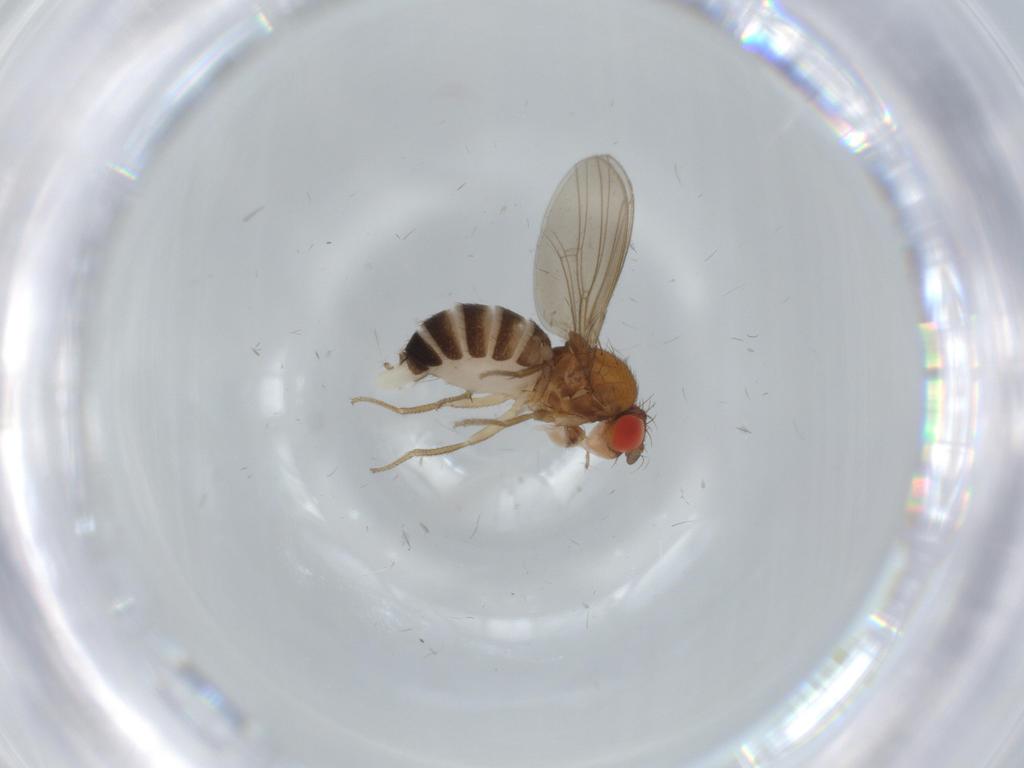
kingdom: Animalia
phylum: Arthropoda
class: Insecta
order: Diptera
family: Drosophilidae
